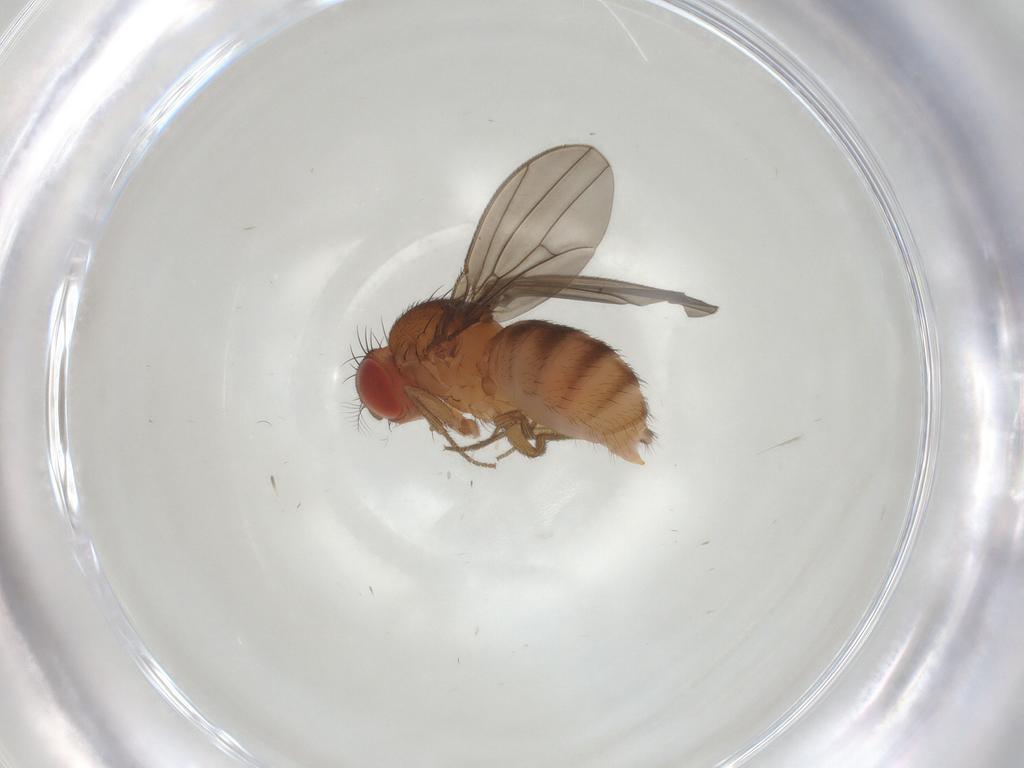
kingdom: Animalia
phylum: Arthropoda
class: Insecta
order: Diptera
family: Drosophilidae
